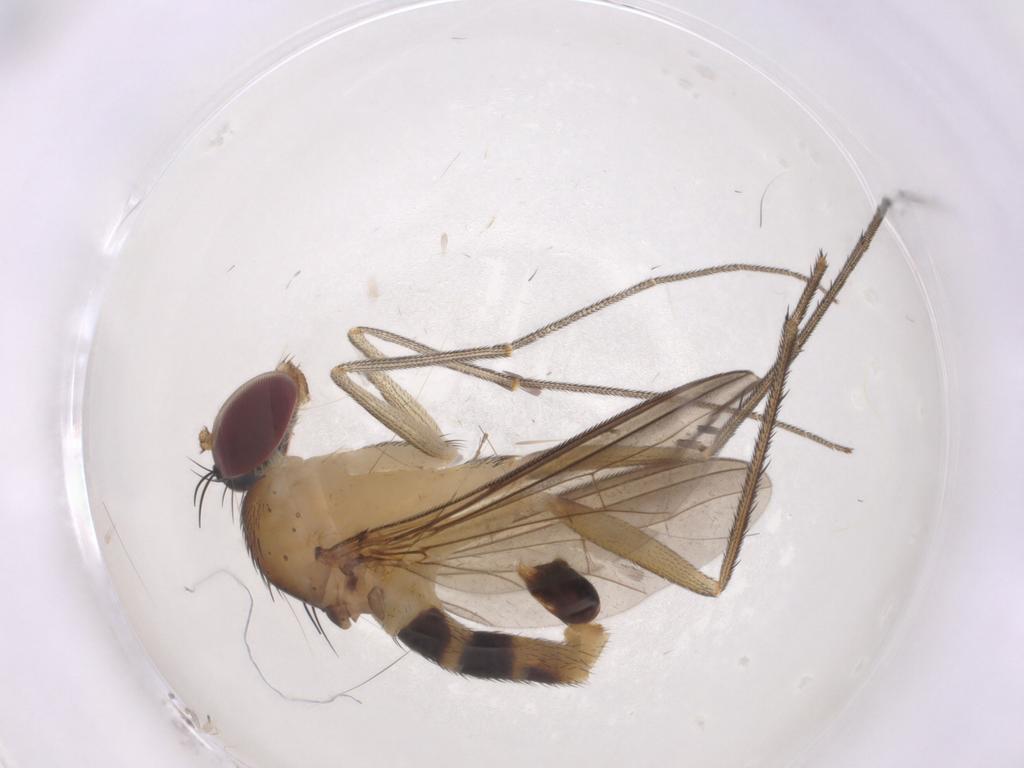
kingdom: Animalia
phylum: Arthropoda
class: Insecta
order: Diptera
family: Dolichopodidae
